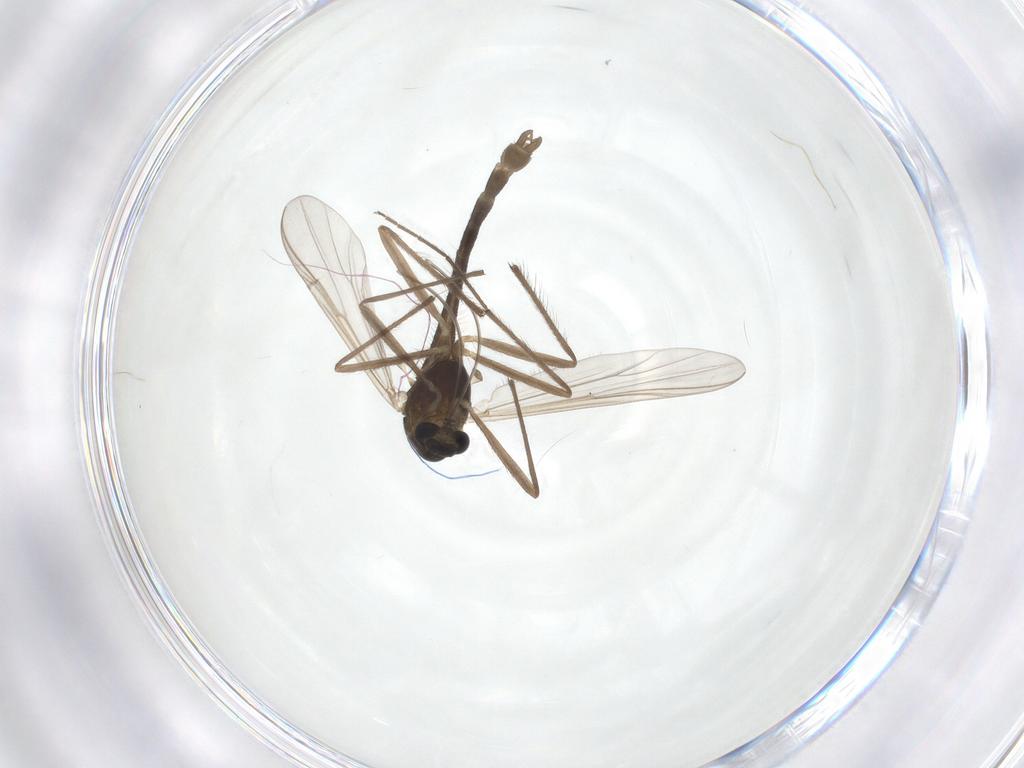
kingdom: Animalia
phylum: Arthropoda
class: Insecta
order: Diptera
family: Chironomidae
